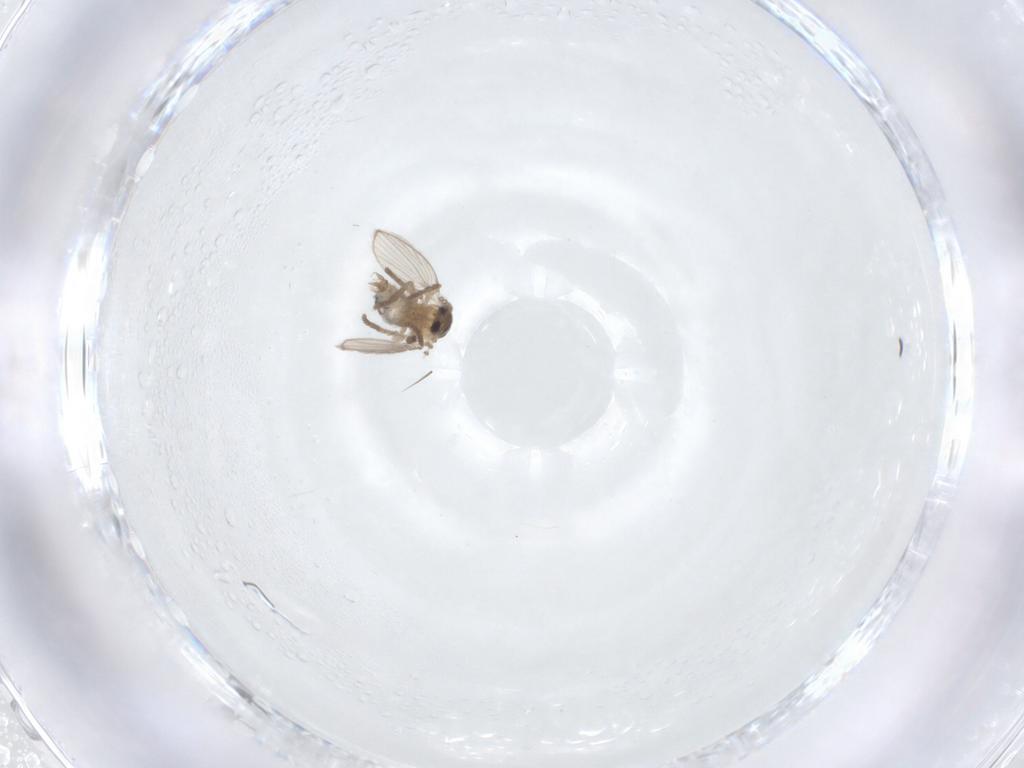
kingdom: Animalia
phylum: Arthropoda
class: Insecta
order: Diptera
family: Psychodidae
